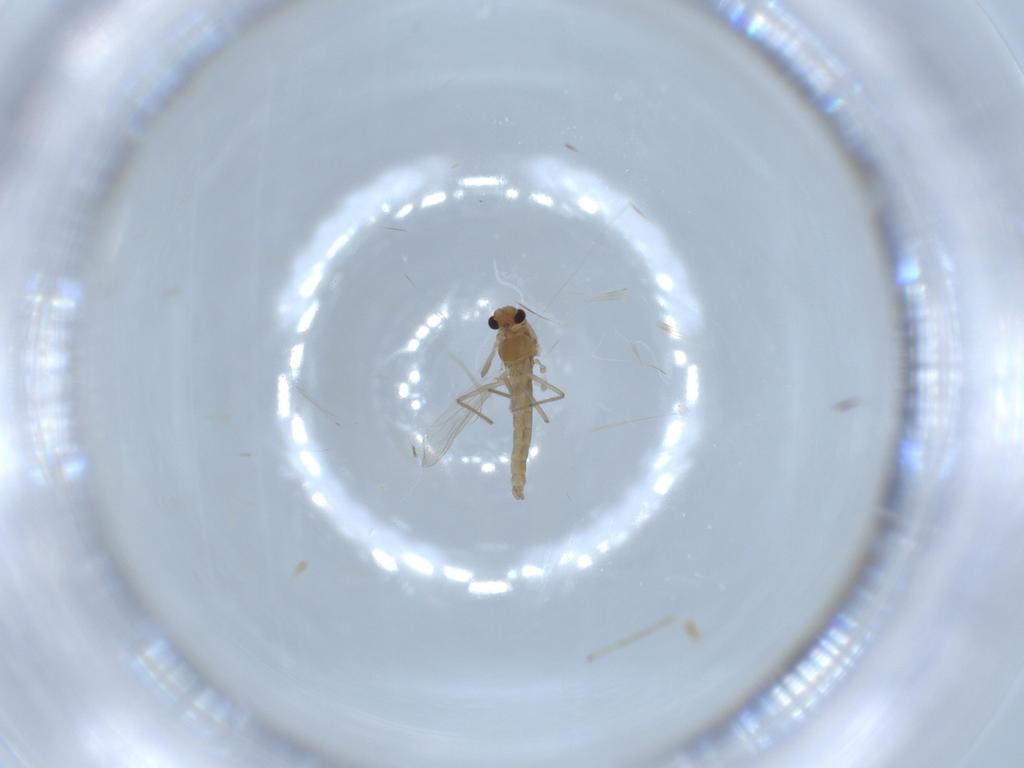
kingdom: Animalia
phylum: Arthropoda
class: Insecta
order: Diptera
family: Chironomidae
